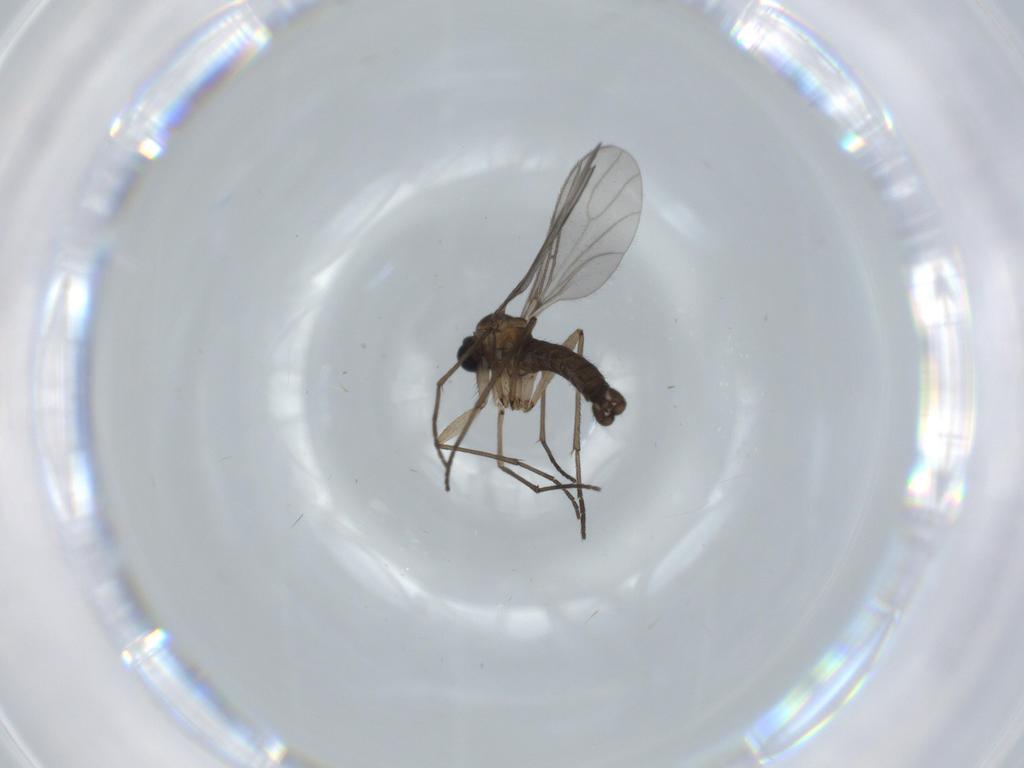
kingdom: Animalia
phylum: Arthropoda
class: Insecta
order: Diptera
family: Sciaridae
